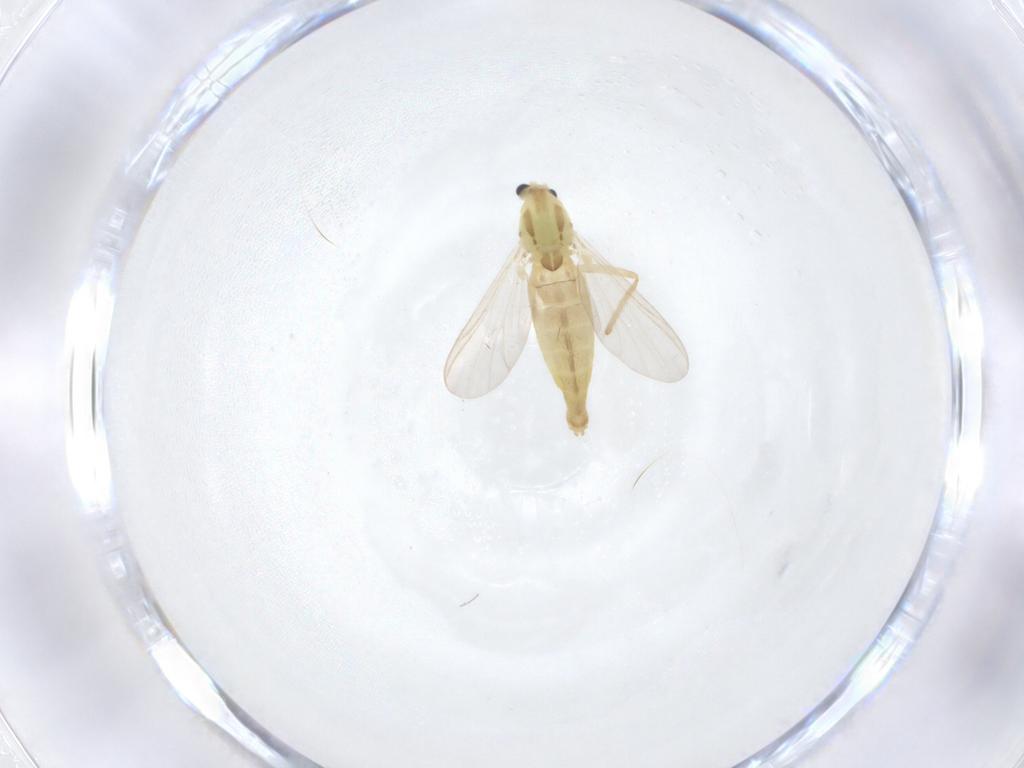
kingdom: Animalia
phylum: Arthropoda
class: Insecta
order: Diptera
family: Chironomidae
